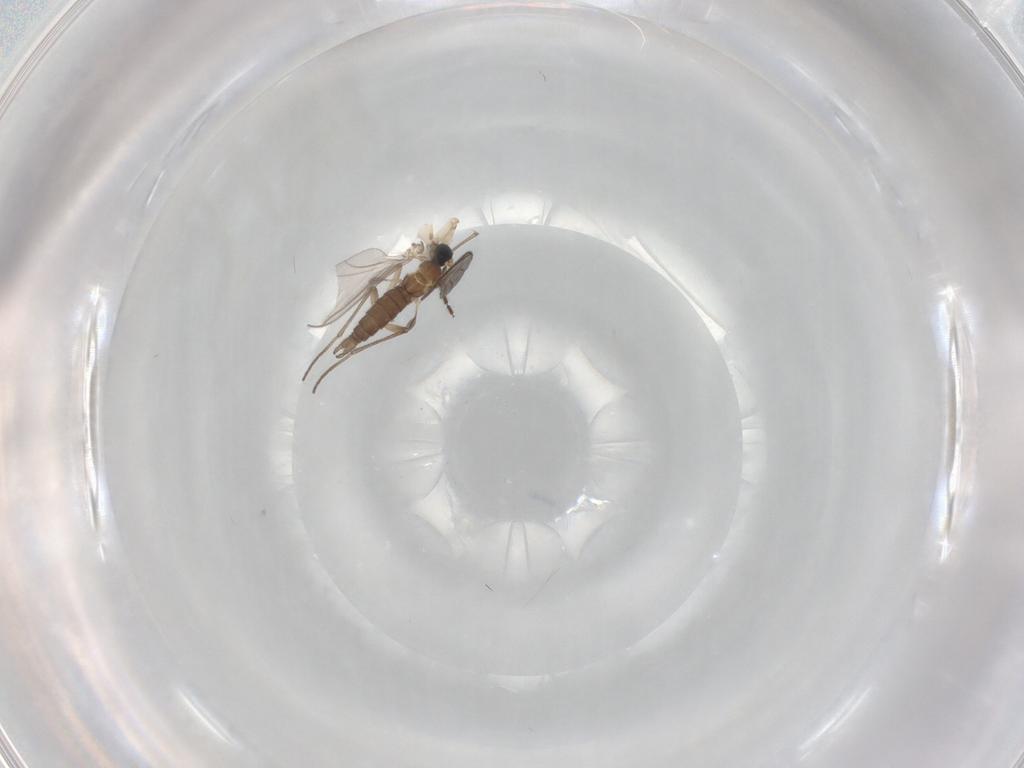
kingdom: Animalia
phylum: Arthropoda
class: Insecta
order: Diptera
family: Sciaridae
